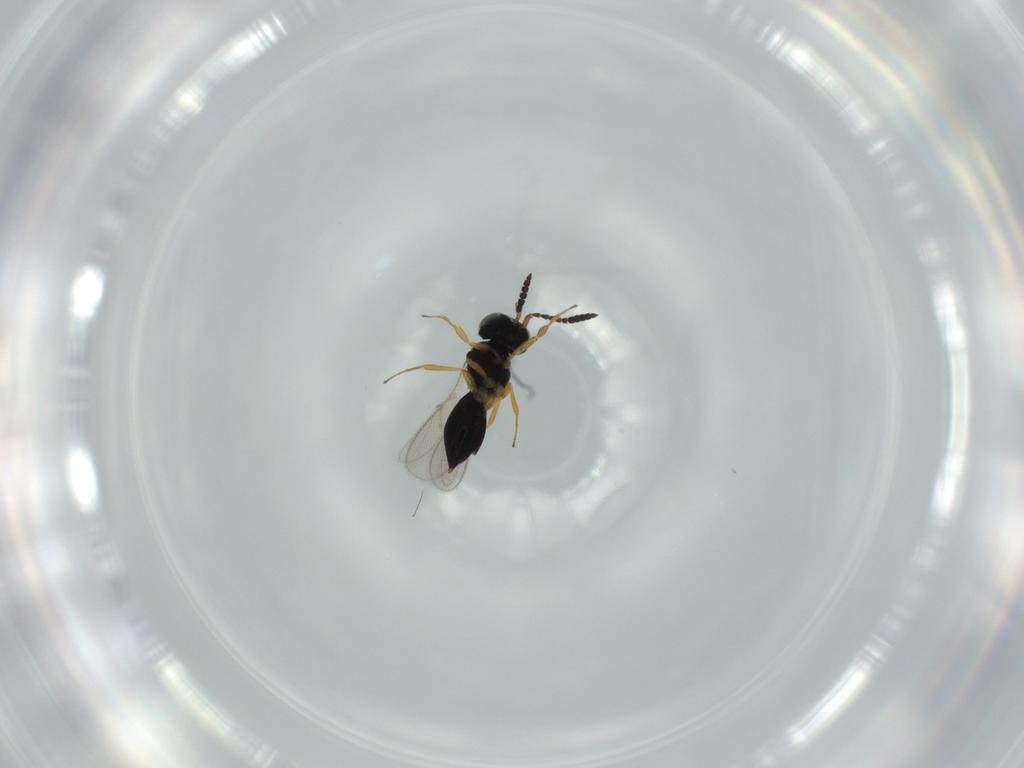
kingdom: Animalia
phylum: Arthropoda
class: Insecta
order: Hymenoptera
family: Scelionidae
